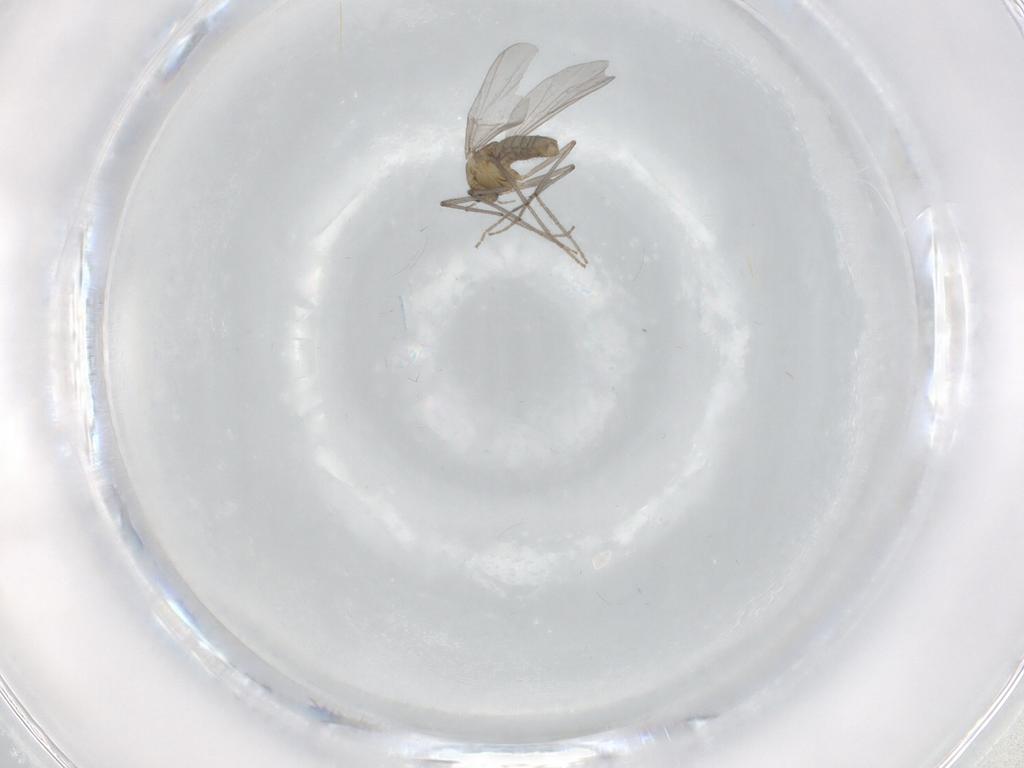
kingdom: Animalia
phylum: Arthropoda
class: Insecta
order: Diptera
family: Chironomidae
